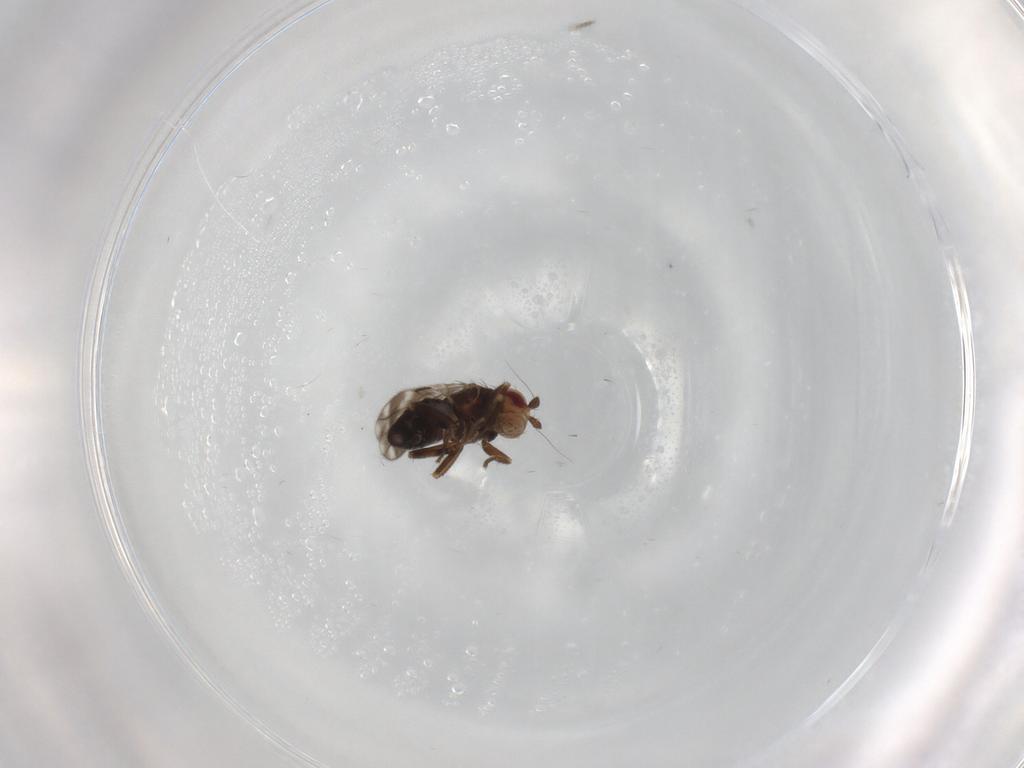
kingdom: Animalia
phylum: Arthropoda
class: Insecta
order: Diptera
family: Sphaeroceridae
